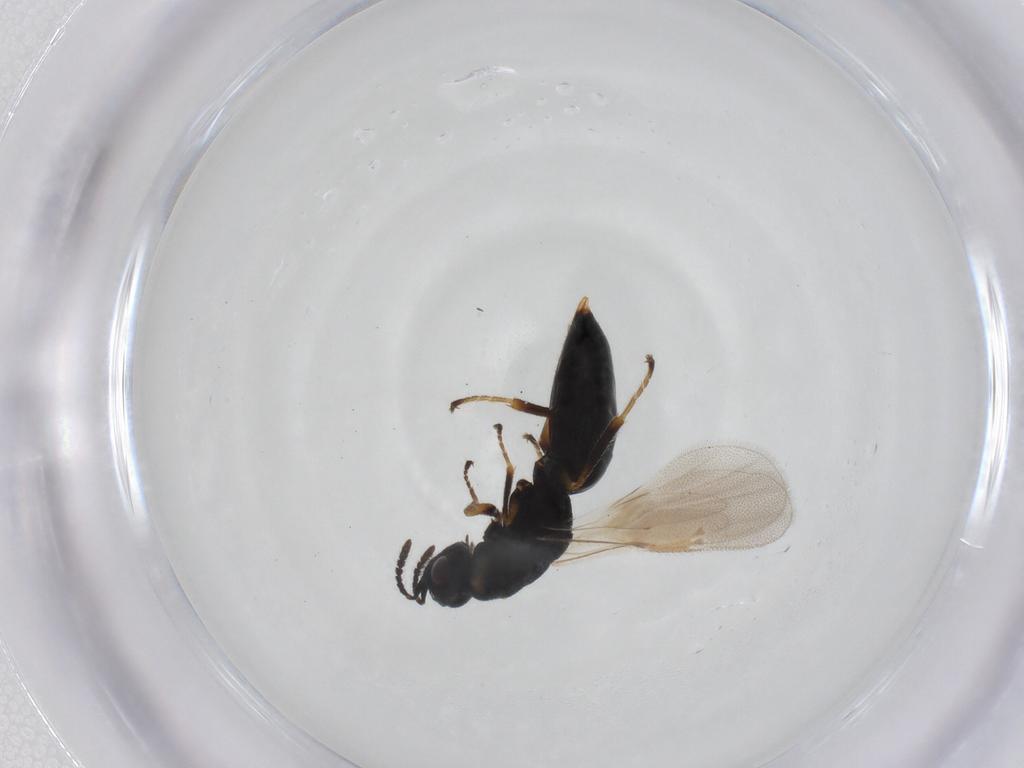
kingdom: Animalia
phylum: Arthropoda
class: Insecta
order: Hymenoptera
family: Eurytomidae
